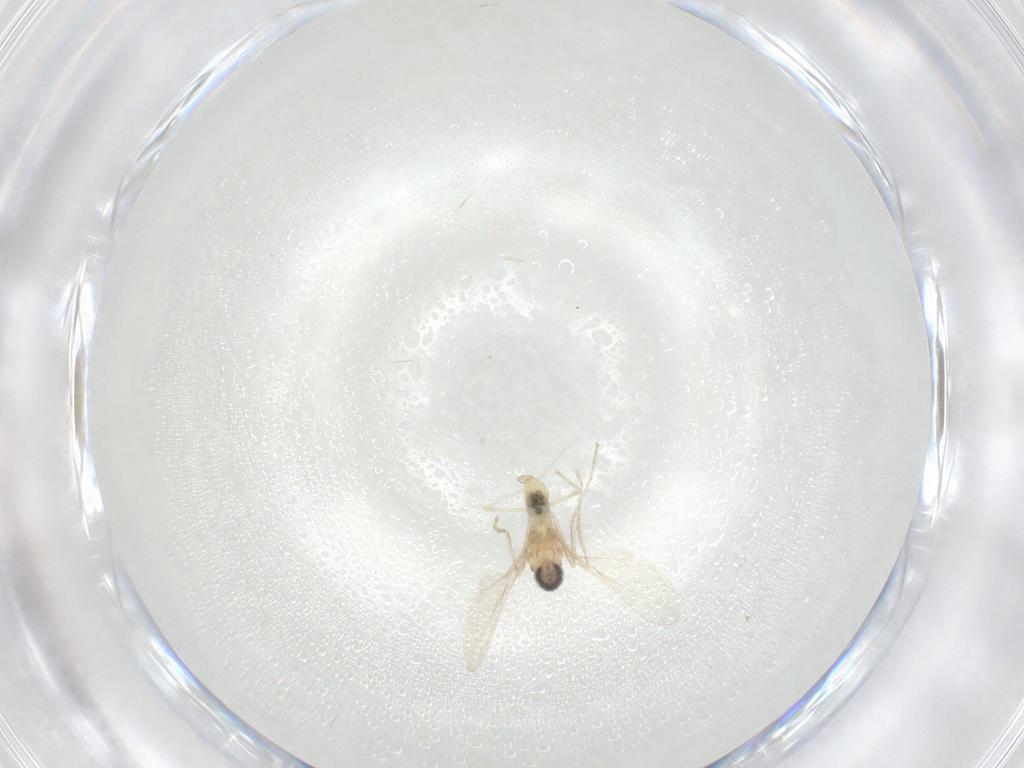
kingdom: Animalia
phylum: Arthropoda
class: Insecta
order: Diptera
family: Cecidomyiidae
